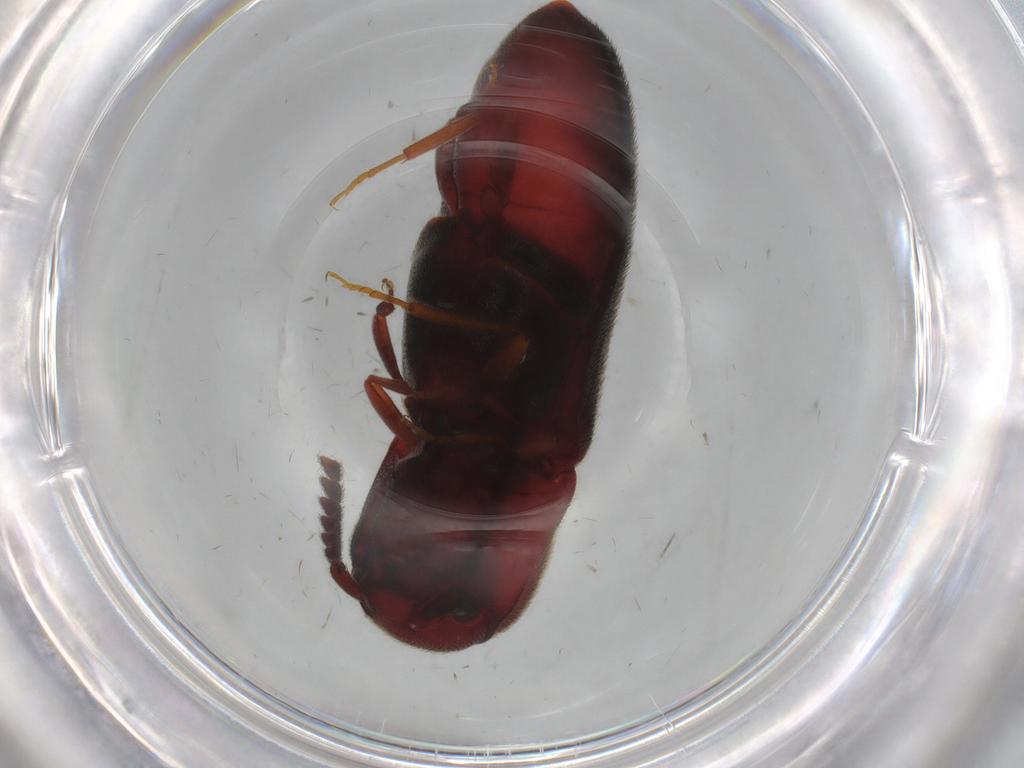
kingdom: Animalia
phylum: Arthropoda
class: Insecta
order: Coleoptera
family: Eucnemidae
